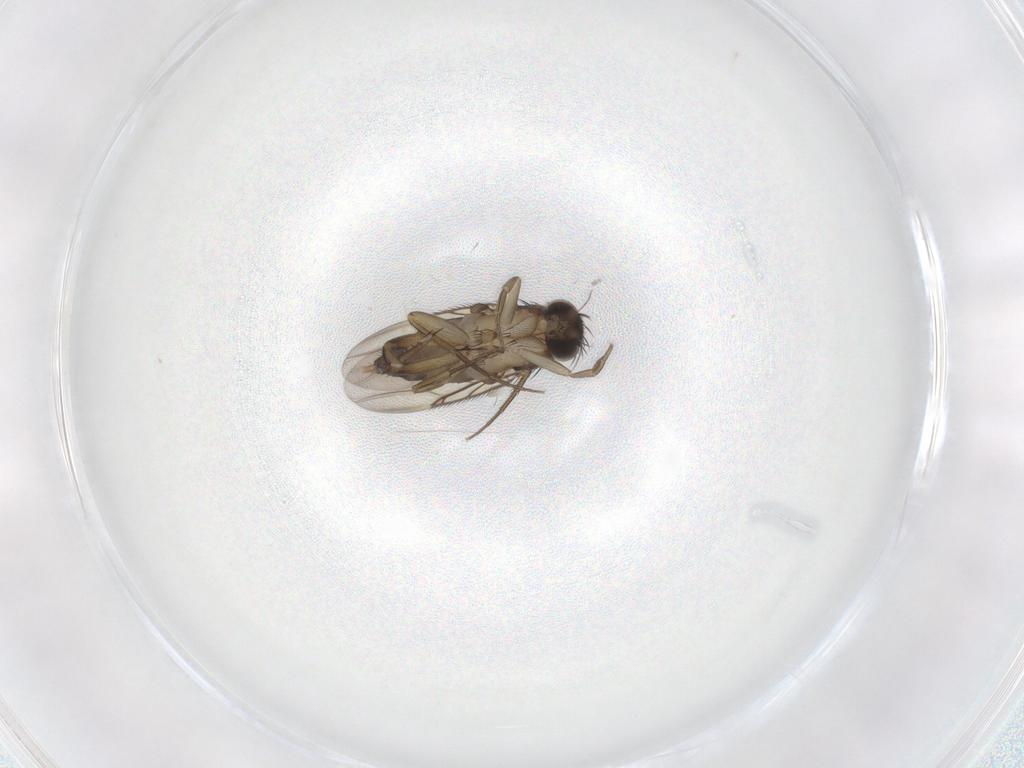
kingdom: Animalia
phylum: Arthropoda
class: Insecta
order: Diptera
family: Phoridae
